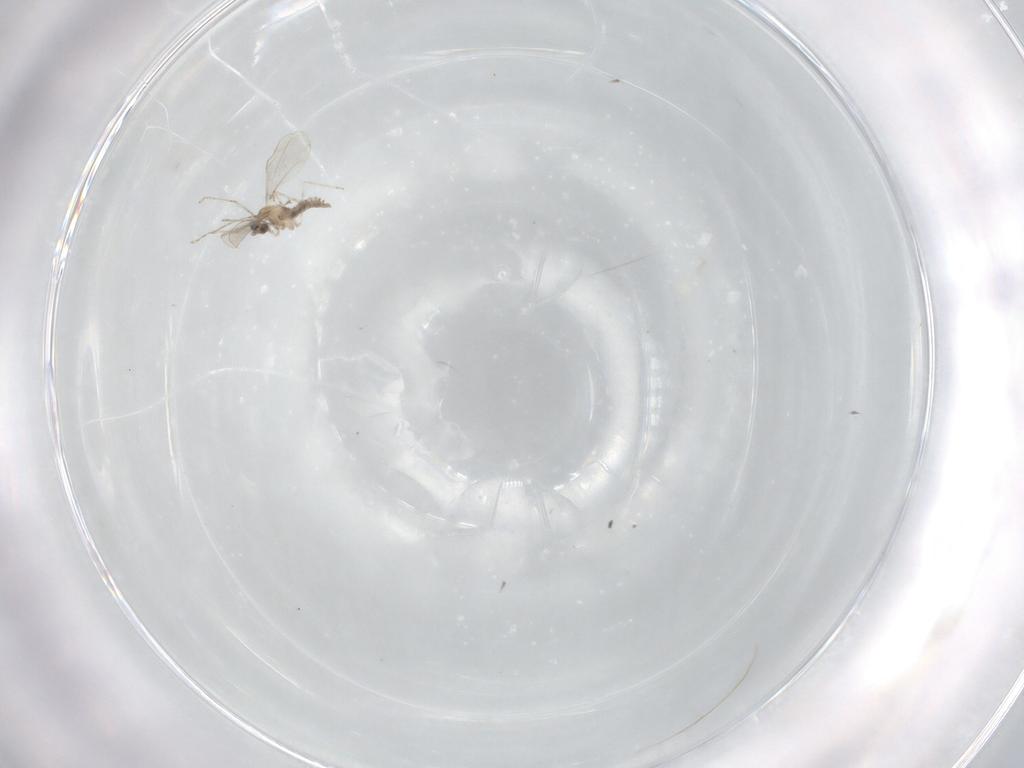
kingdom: Animalia
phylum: Arthropoda
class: Insecta
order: Diptera
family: Cecidomyiidae
